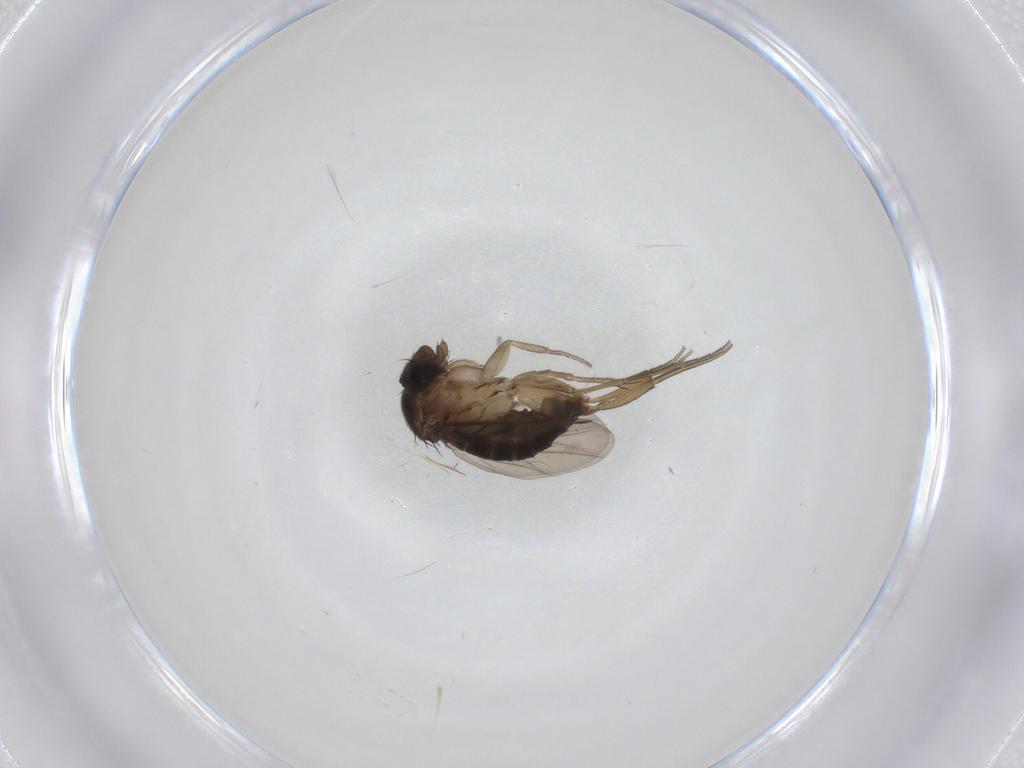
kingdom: Animalia
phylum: Arthropoda
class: Insecta
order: Diptera
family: Phoridae
